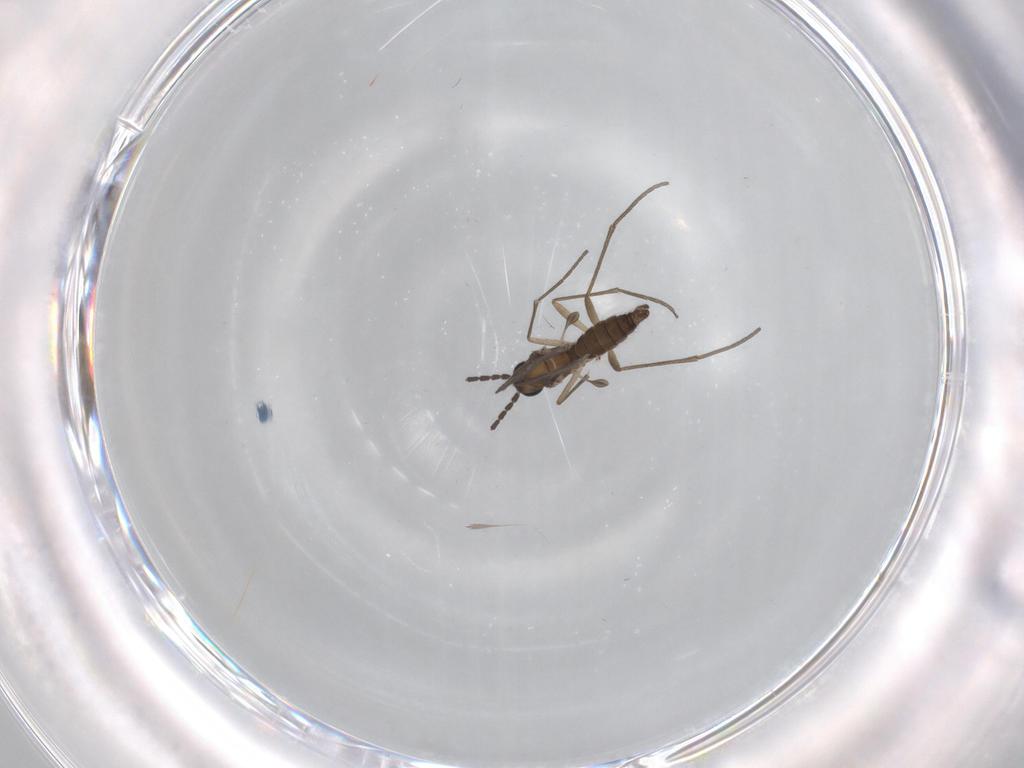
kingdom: Animalia
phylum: Arthropoda
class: Insecta
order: Diptera
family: Sciaridae
